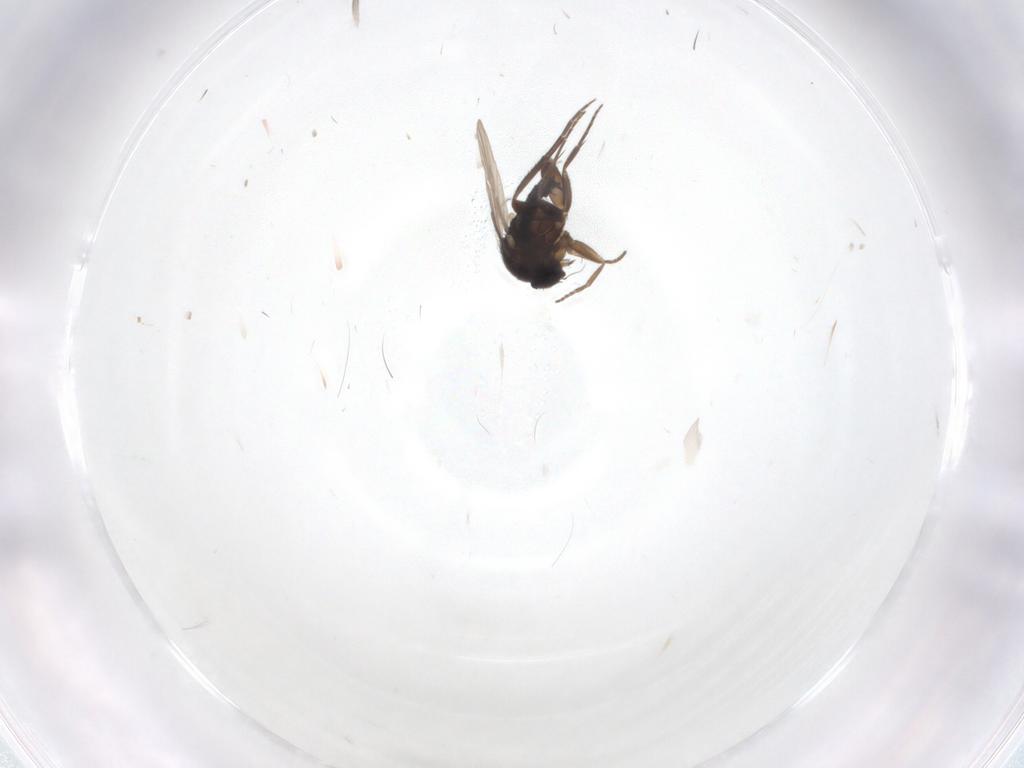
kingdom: Animalia
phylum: Arthropoda
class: Insecta
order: Diptera
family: Phoridae
